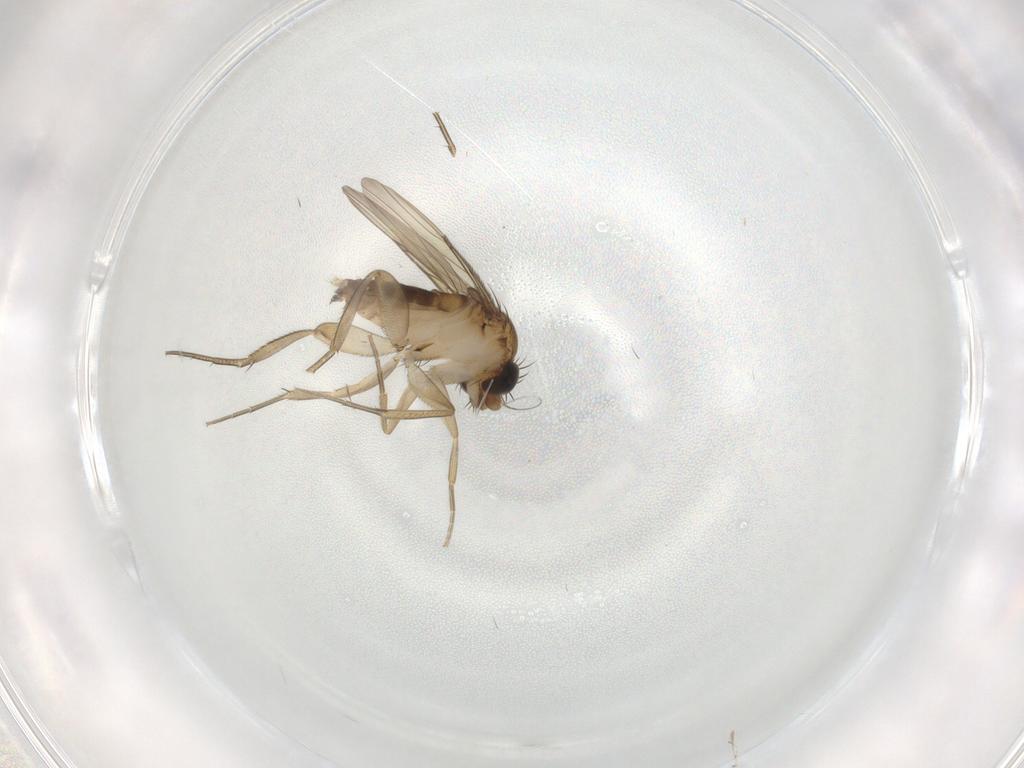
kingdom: Animalia
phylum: Arthropoda
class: Insecta
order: Diptera
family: Phoridae
